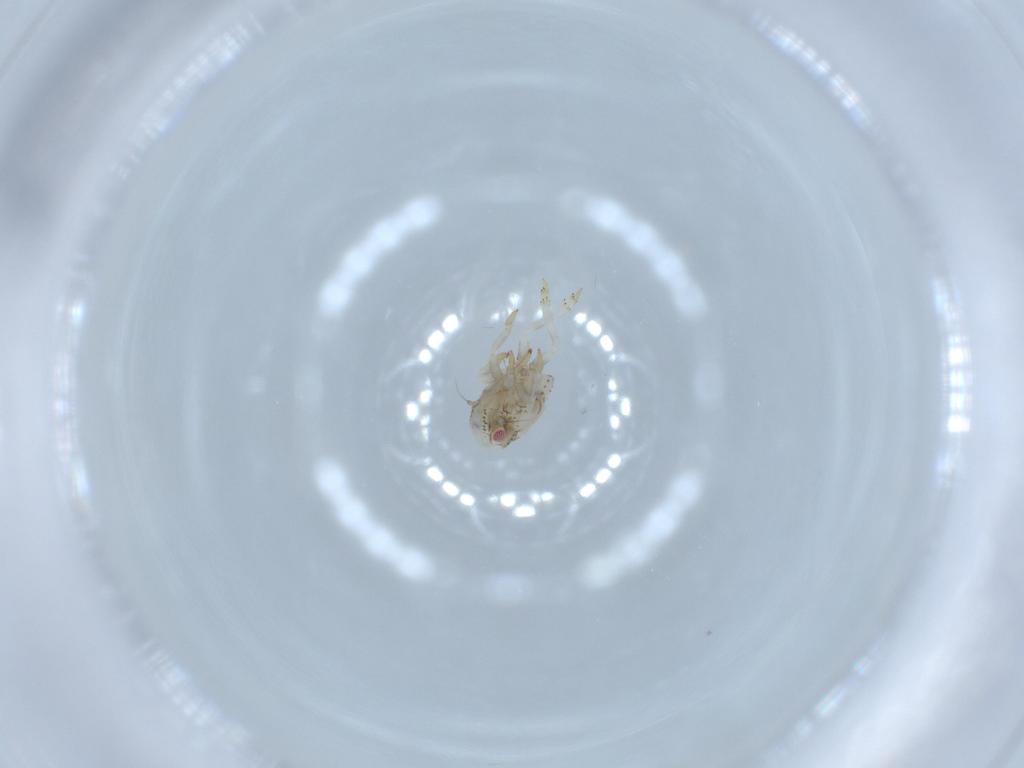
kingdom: Animalia
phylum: Arthropoda
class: Insecta
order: Hemiptera
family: Acanaloniidae
